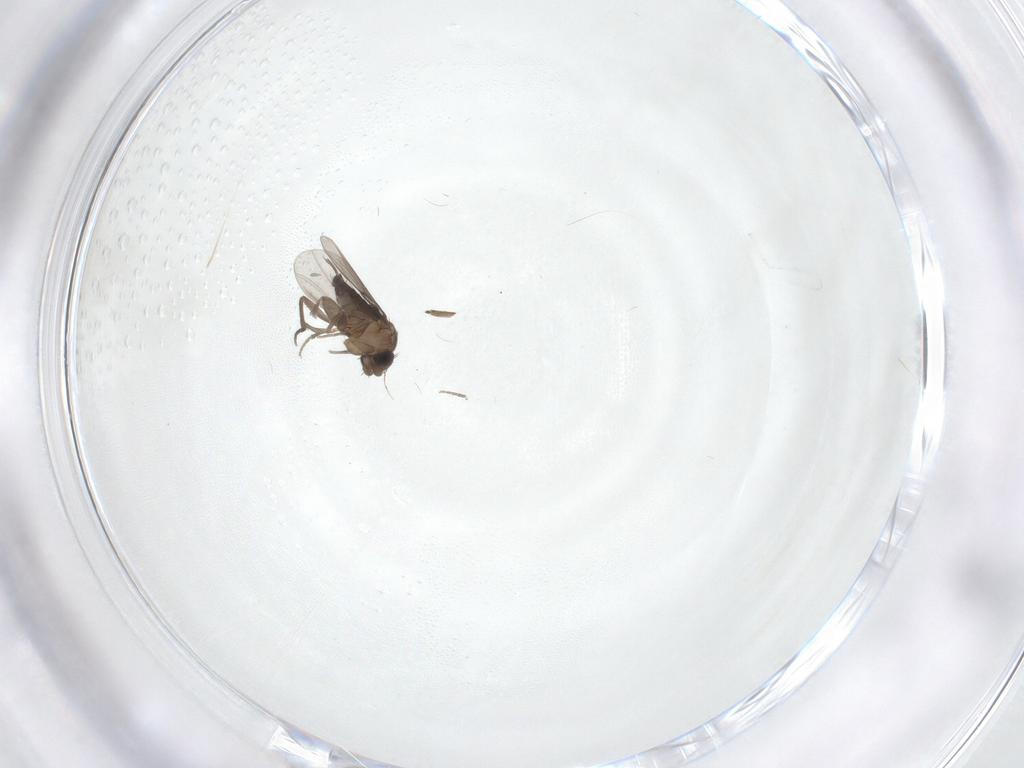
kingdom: Animalia
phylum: Arthropoda
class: Insecta
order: Diptera
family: Phoridae
